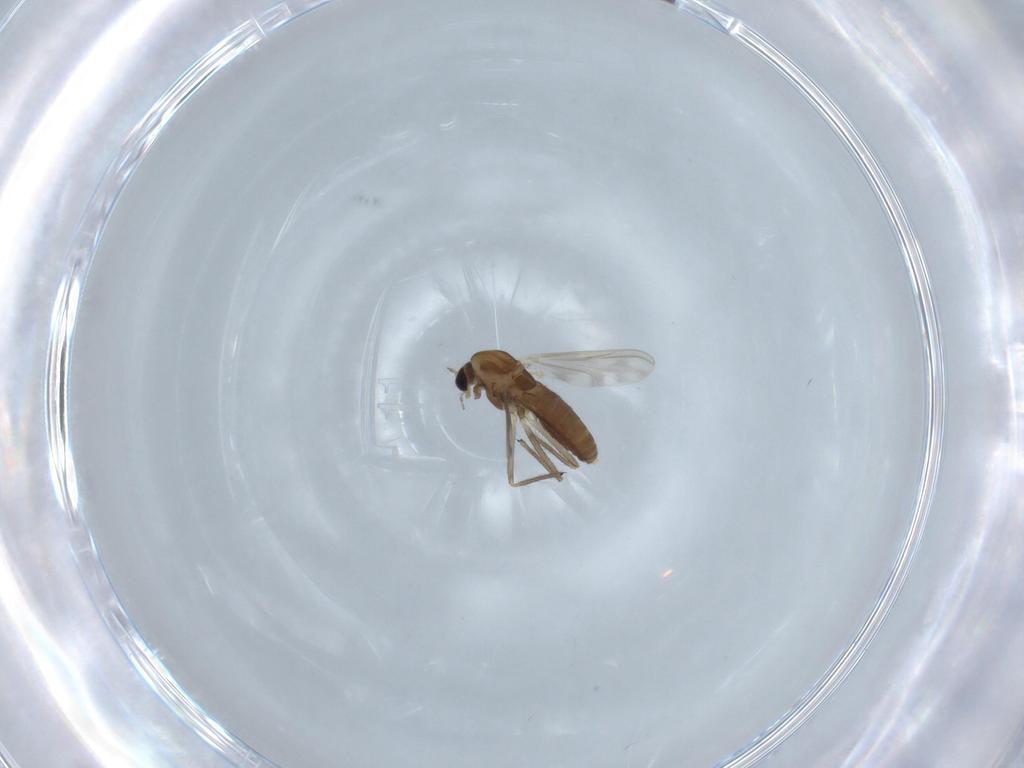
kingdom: Animalia
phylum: Arthropoda
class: Insecta
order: Diptera
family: Chironomidae
